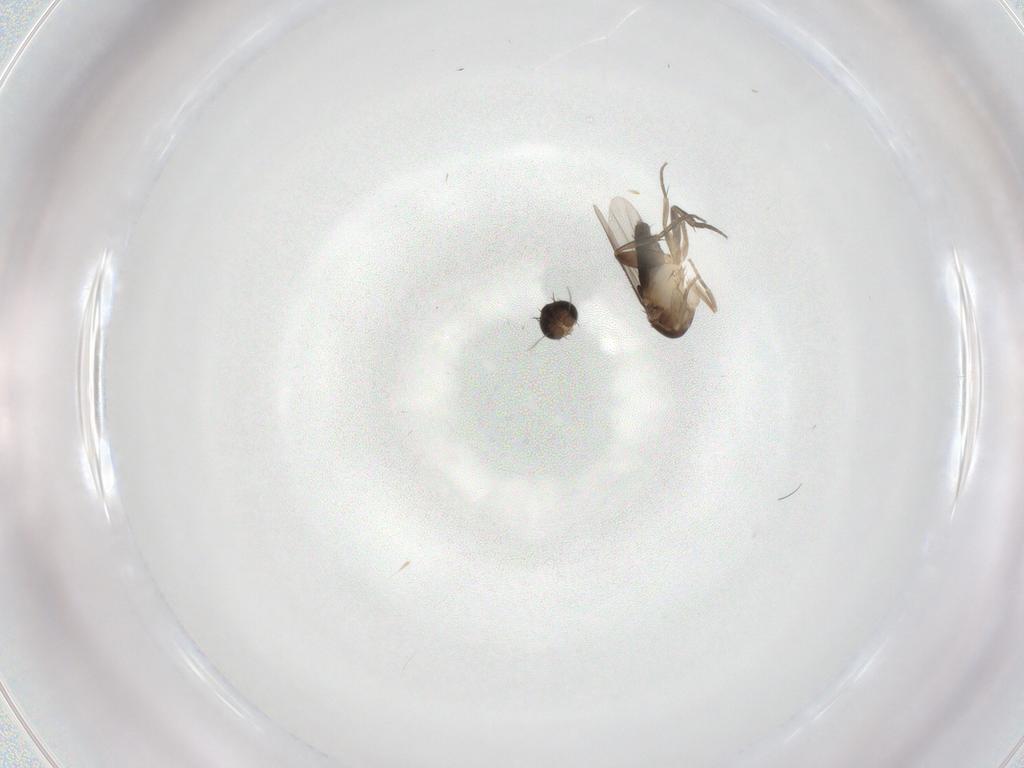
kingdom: Animalia
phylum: Arthropoda
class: Insecta
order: Diptera
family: Phoridae
